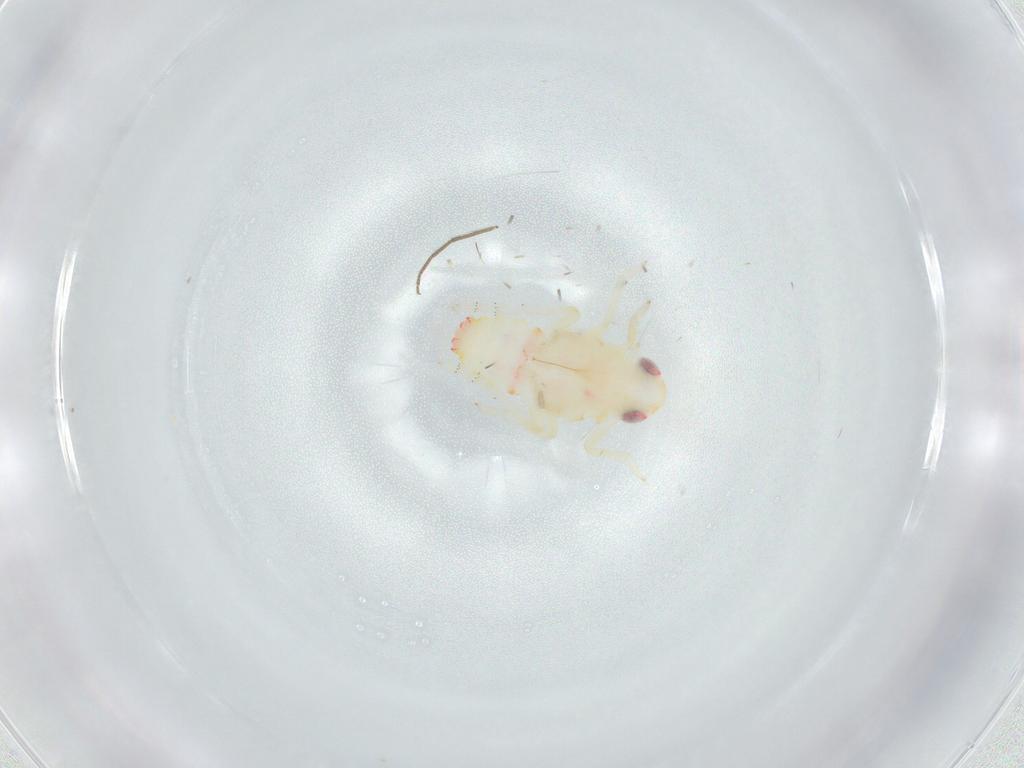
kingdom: Animalia
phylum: Arthropoda
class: Insecta
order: Hemiptera
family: Tropiduchidae
